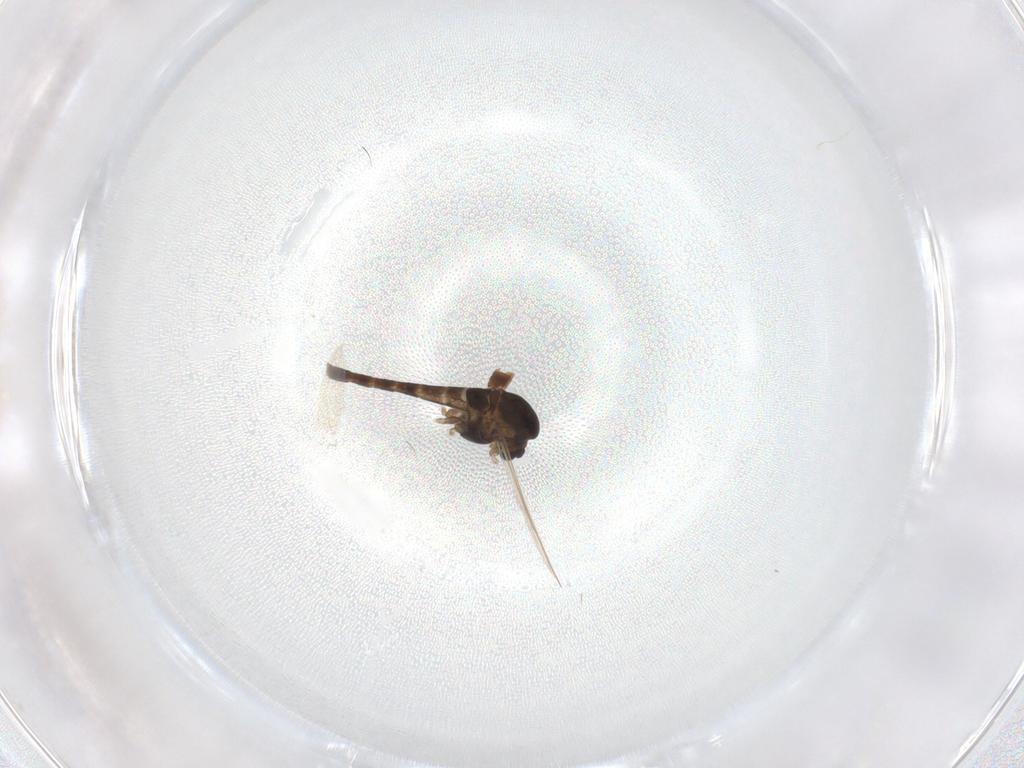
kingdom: Animalia
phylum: Arthropoda
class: Insecta
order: Diptera
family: Chironomidae
